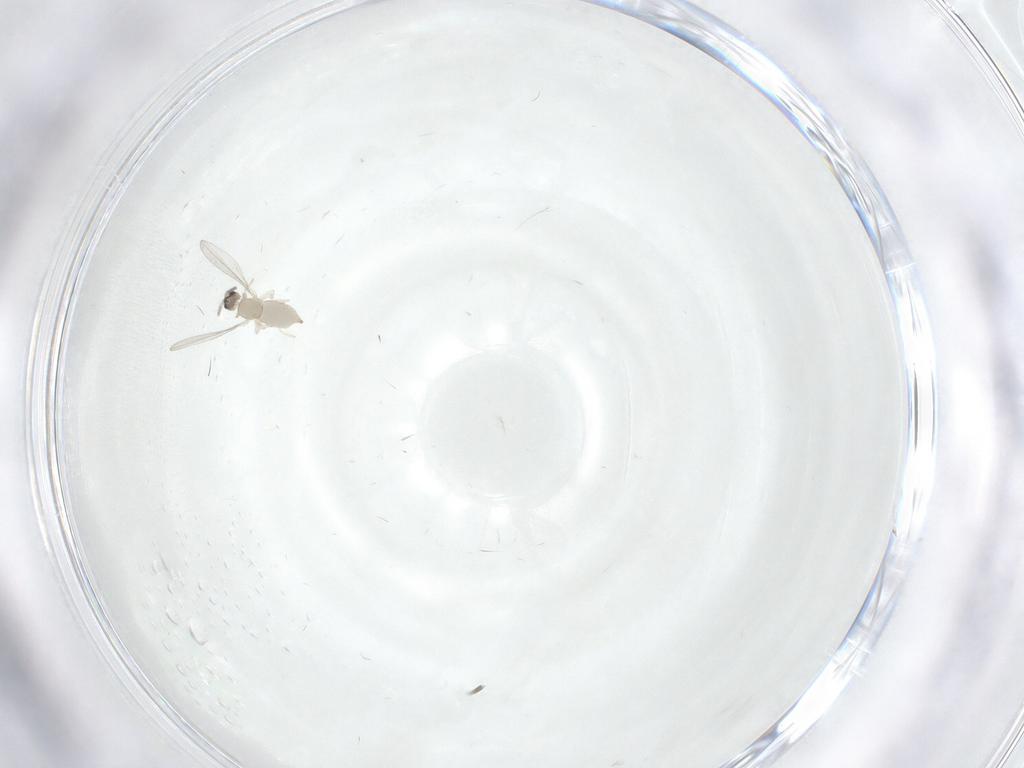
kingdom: Animalia
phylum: Arthropoda
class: Insecta
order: Diptera
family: Cecidomyiidae
